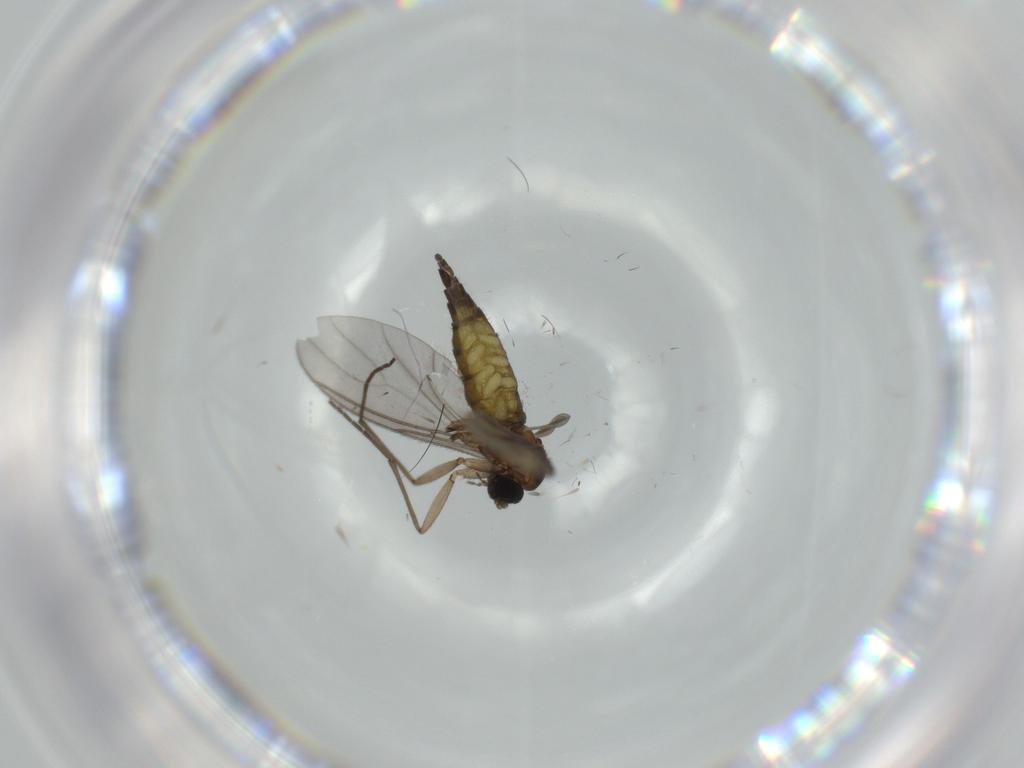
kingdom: Animalia
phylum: Arthropoda
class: Insecta
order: Diptera
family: Sciaridae
